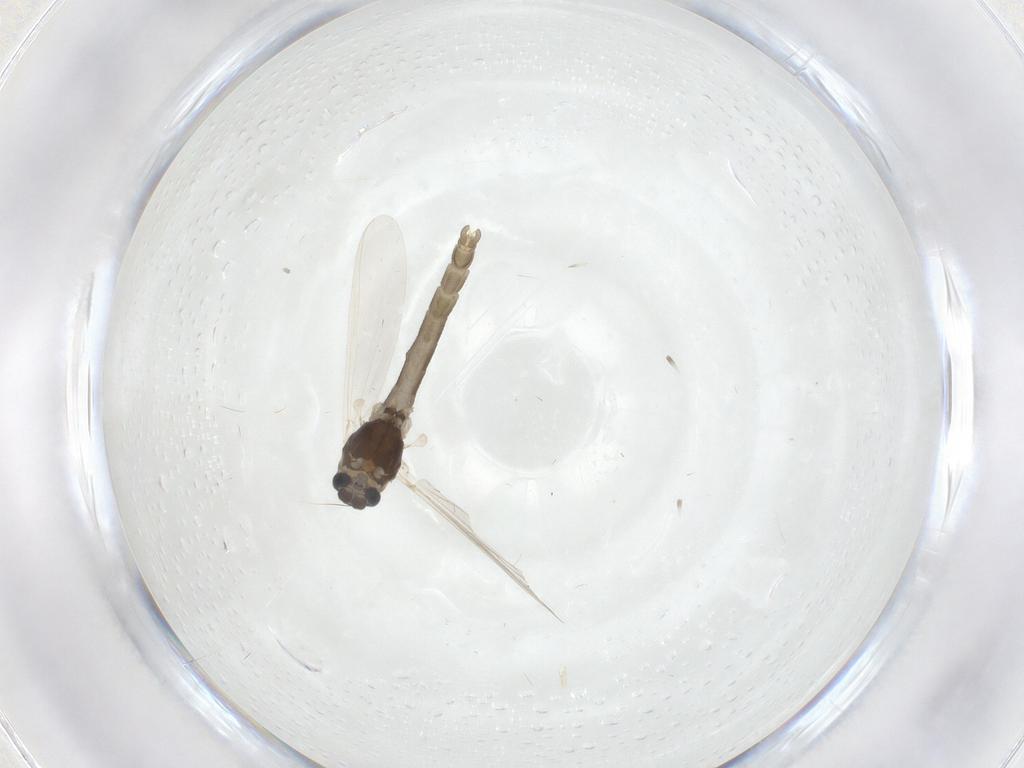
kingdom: Animalia
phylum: Arthropoda
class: Insecta
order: Diptera
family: Chironomidae
